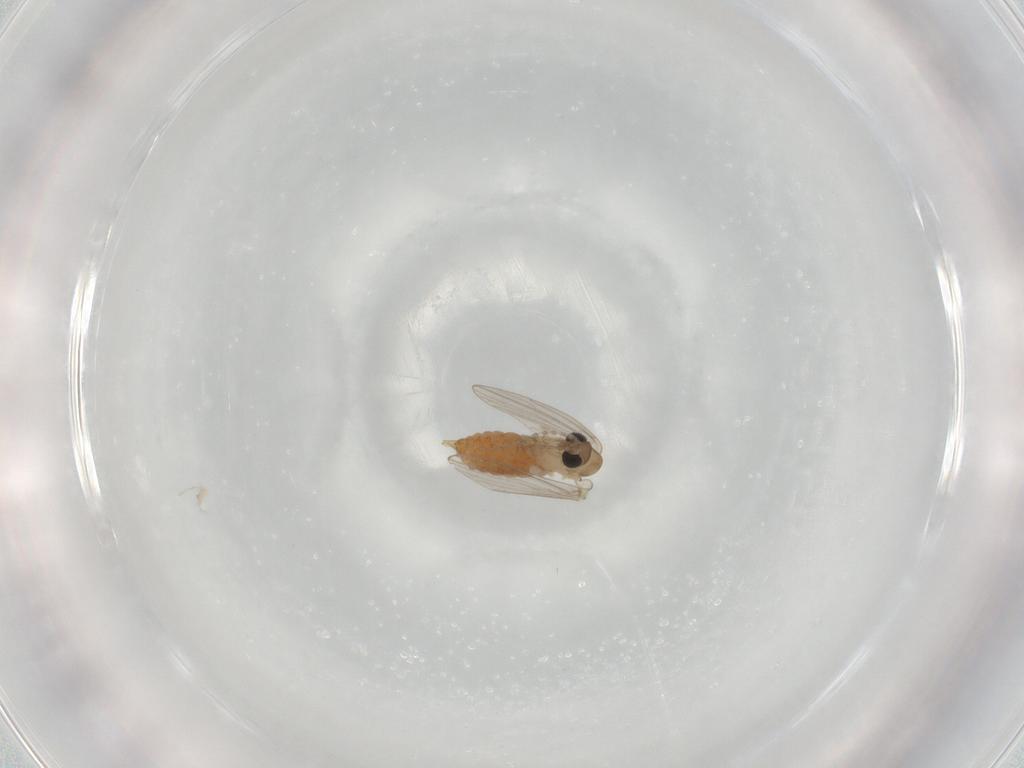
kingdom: Animalia
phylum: Arthropoda
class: Insecta
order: Diptera
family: Psychodidae
